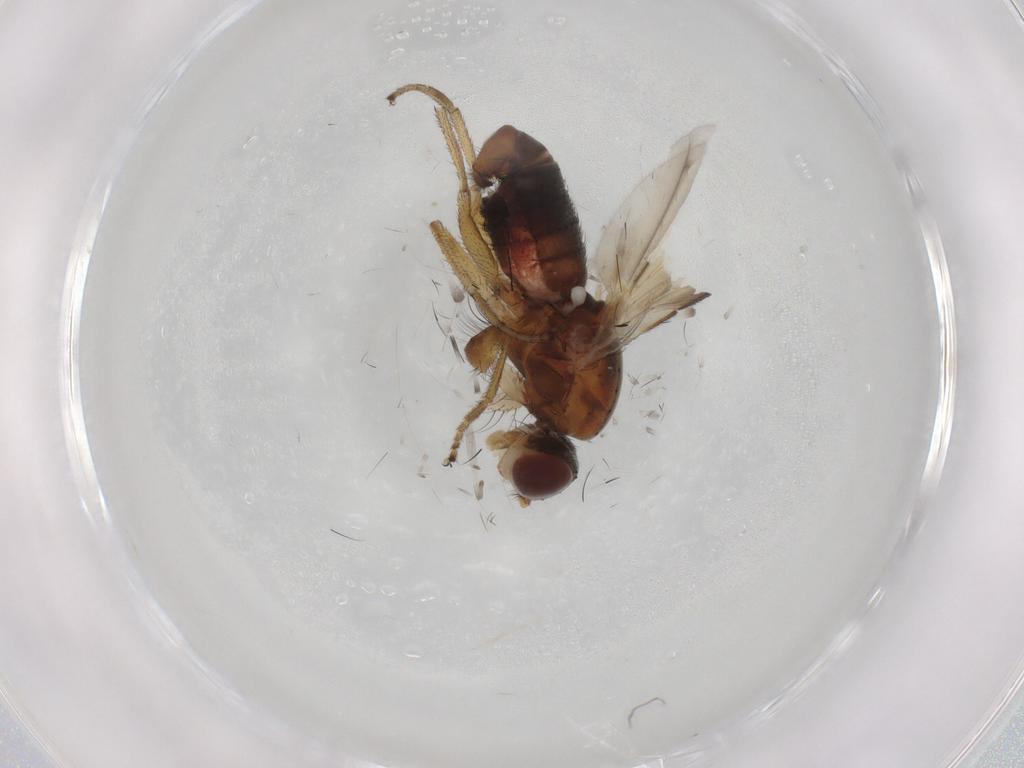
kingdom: Animalia
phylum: Arthropoda
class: Insecta
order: Diptera
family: Heleomyzidae
